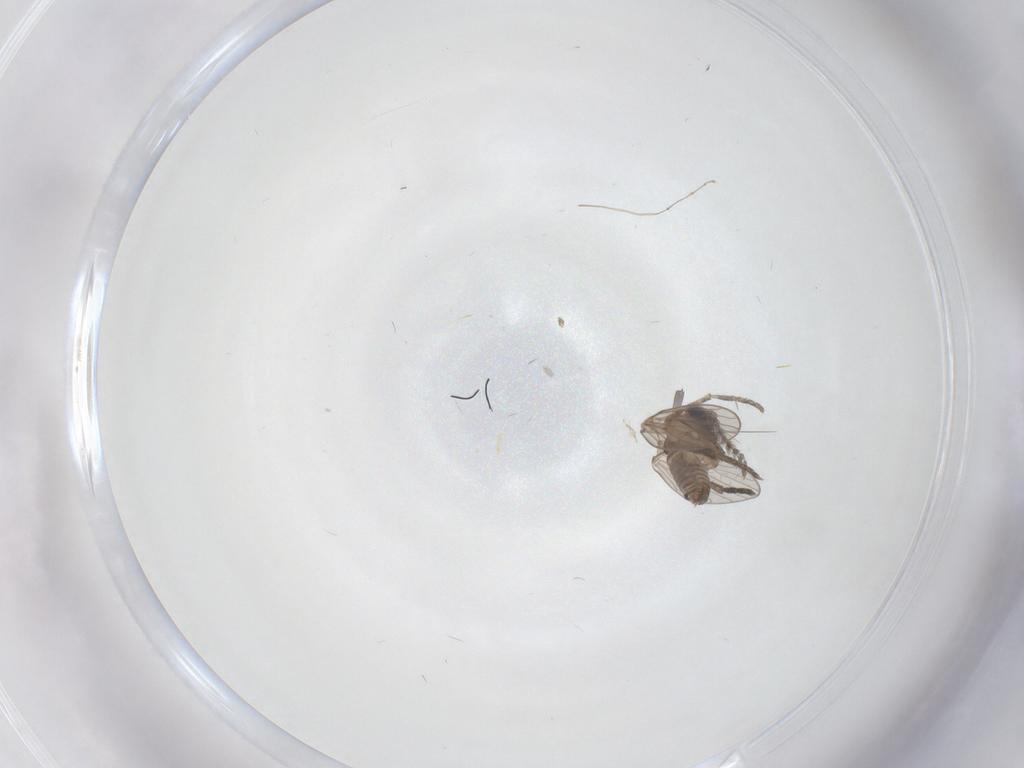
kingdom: Animalia
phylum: Arthropoda
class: Insecta
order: Diptera
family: Psychodidae
